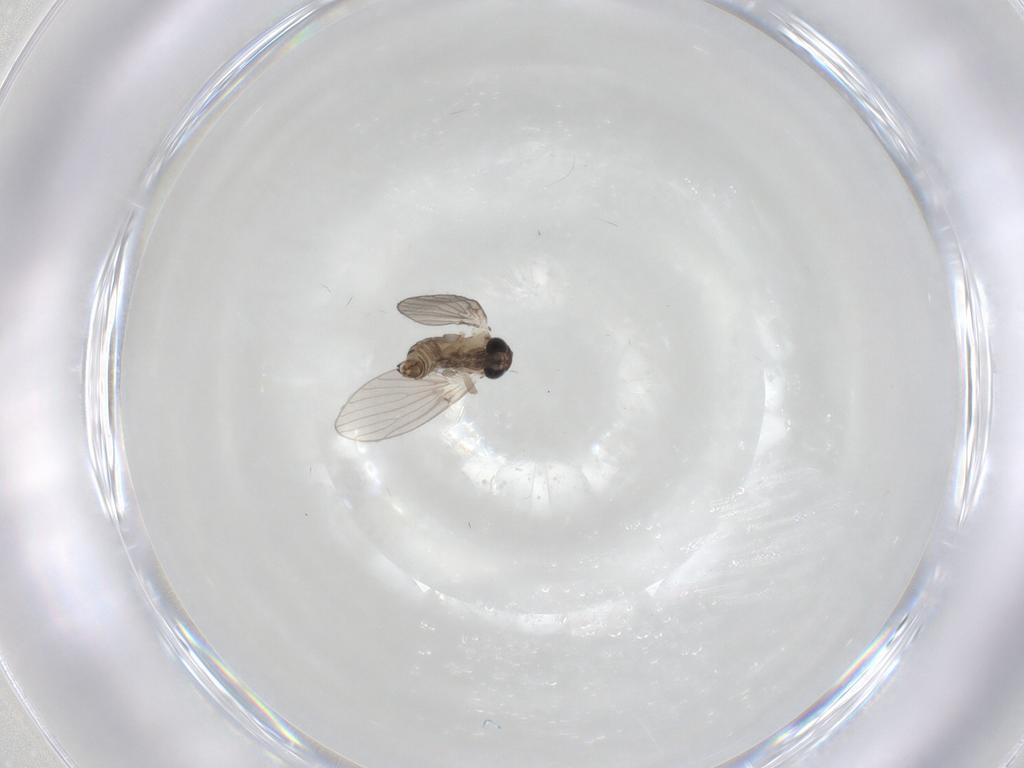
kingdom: Animalia
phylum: Arthropoda
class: Insecta
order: Diptera
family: Psychodidae
